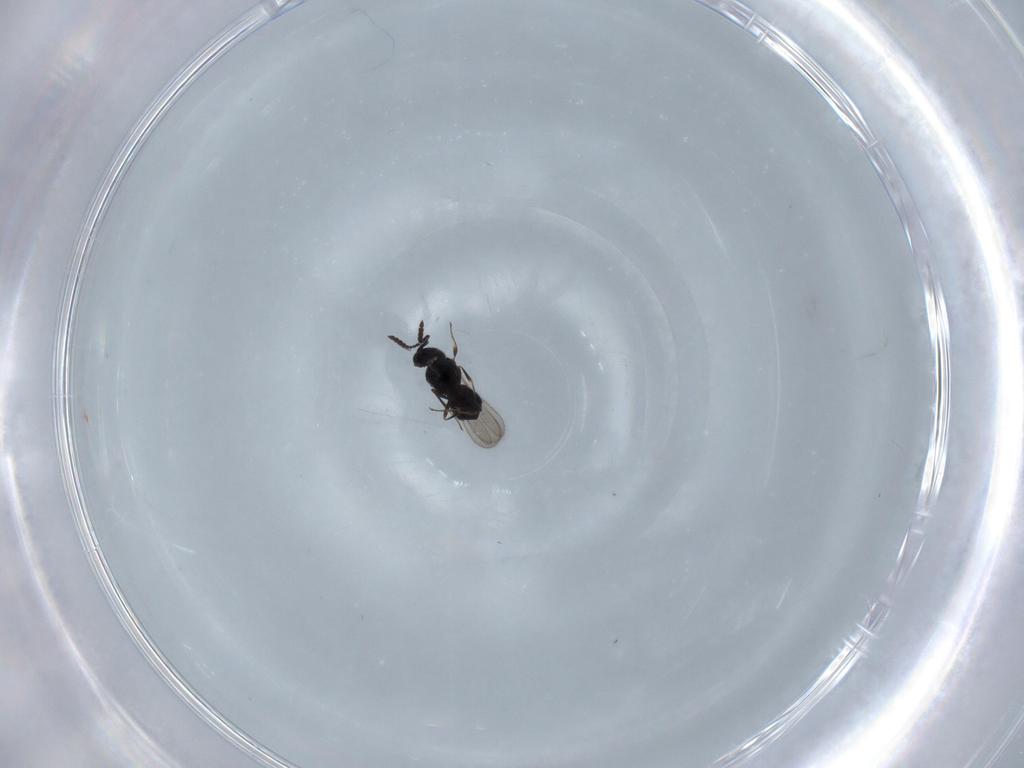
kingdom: Animalia
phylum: Arthropoda
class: Insecta
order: Hymenoptera
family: Scelionidae
